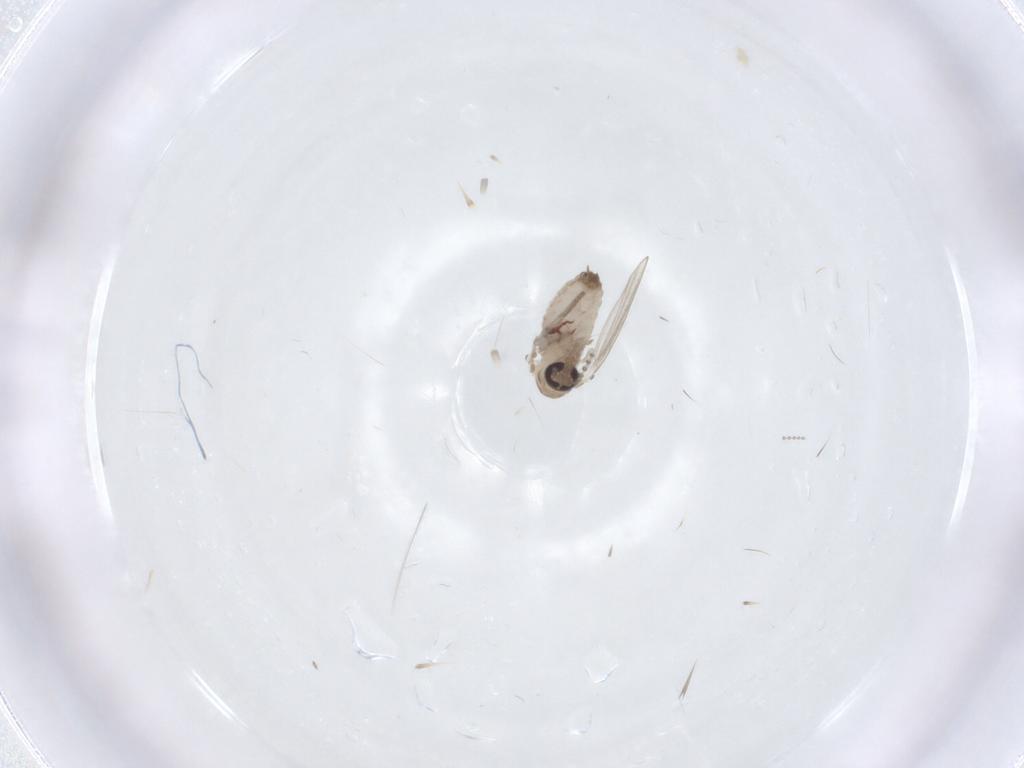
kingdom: Animalia
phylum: Arthropoda
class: Insecta
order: Diptera
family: Psychodidae
